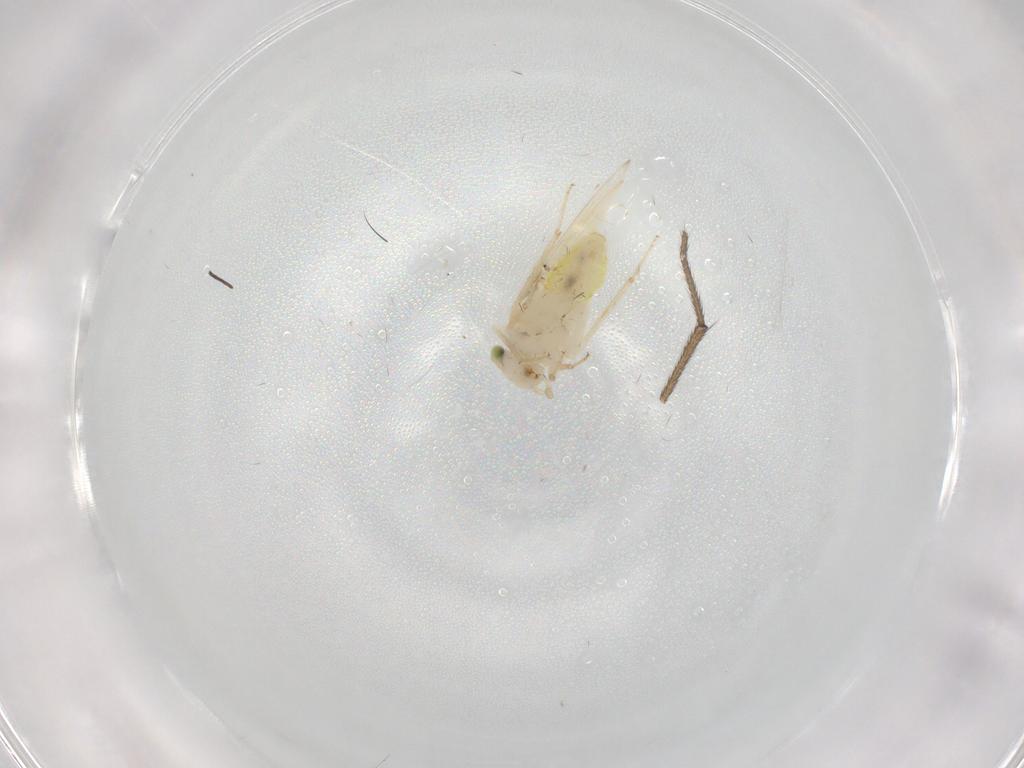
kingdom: Animalia
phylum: Arthropoda
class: Insecta
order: Psocodea
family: Lepidopsocidae
